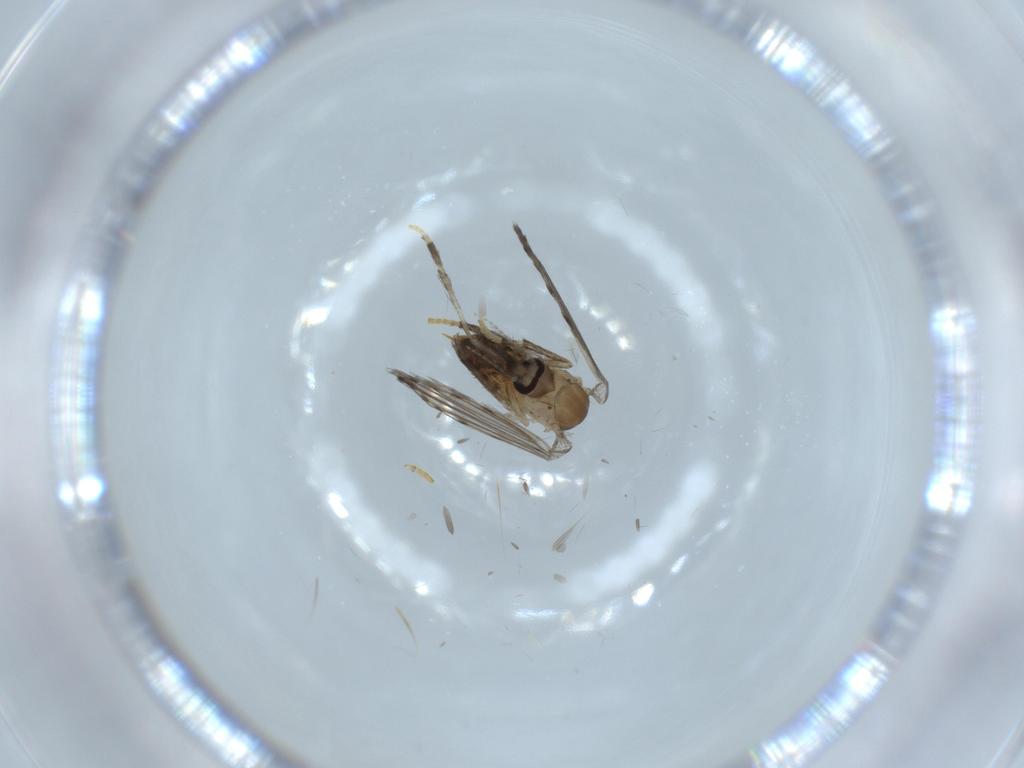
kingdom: Animalia
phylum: Arthropoda
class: Insecta
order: Diptera
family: Psychodidae
